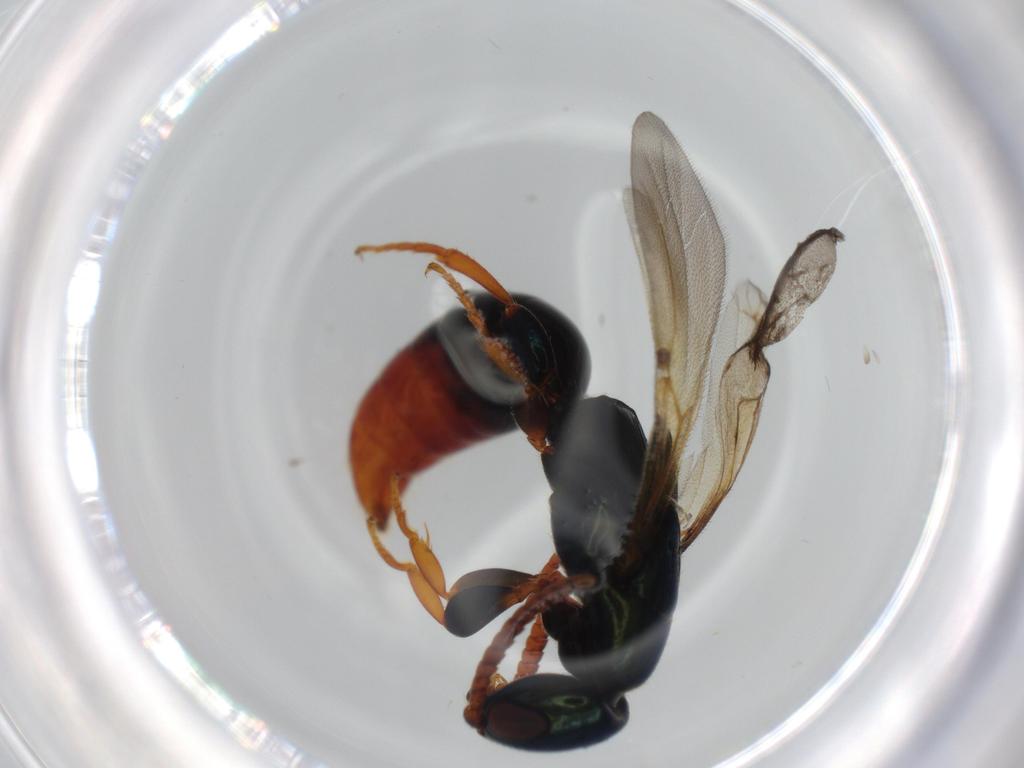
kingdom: Animalia
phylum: Arthropoda
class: Insecta
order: Hymenoptera
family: Bethylidae
